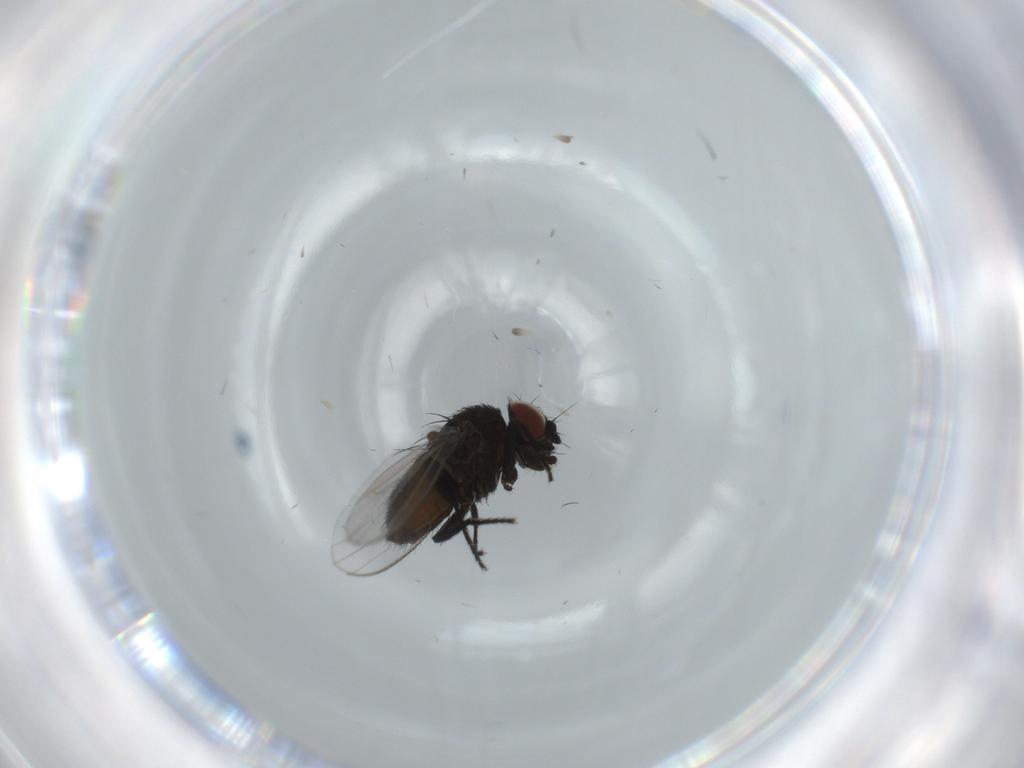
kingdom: Animalia
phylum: Arthropoda
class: Insecta
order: Diptera
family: Milichiidae
